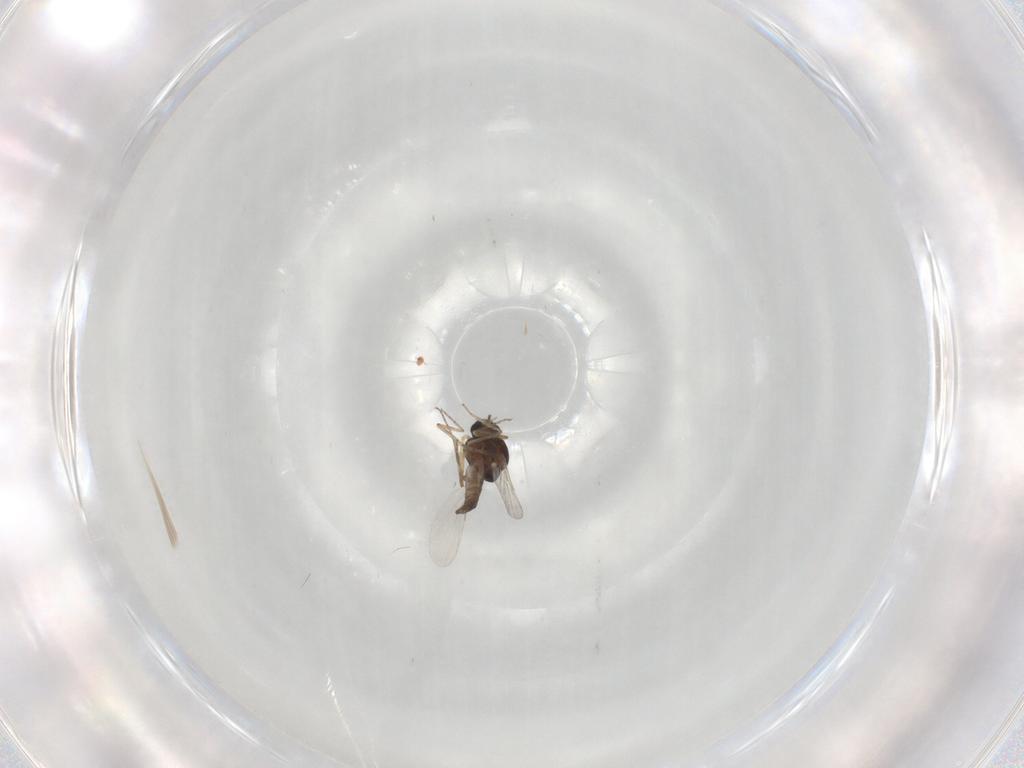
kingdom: Animalia
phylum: Arthropoda
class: Insecta
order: Diptera
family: Ceratopogonidae
